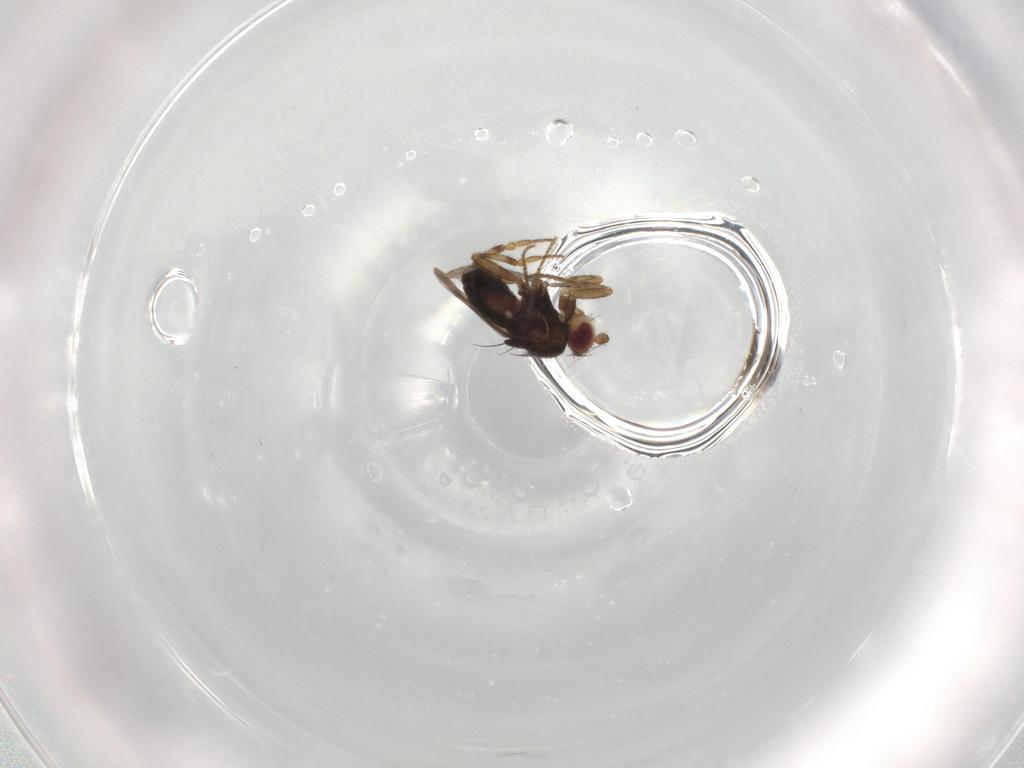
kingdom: Animalia
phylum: Arthropoda
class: Insecta
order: Diptera
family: Sphaeroceridae
